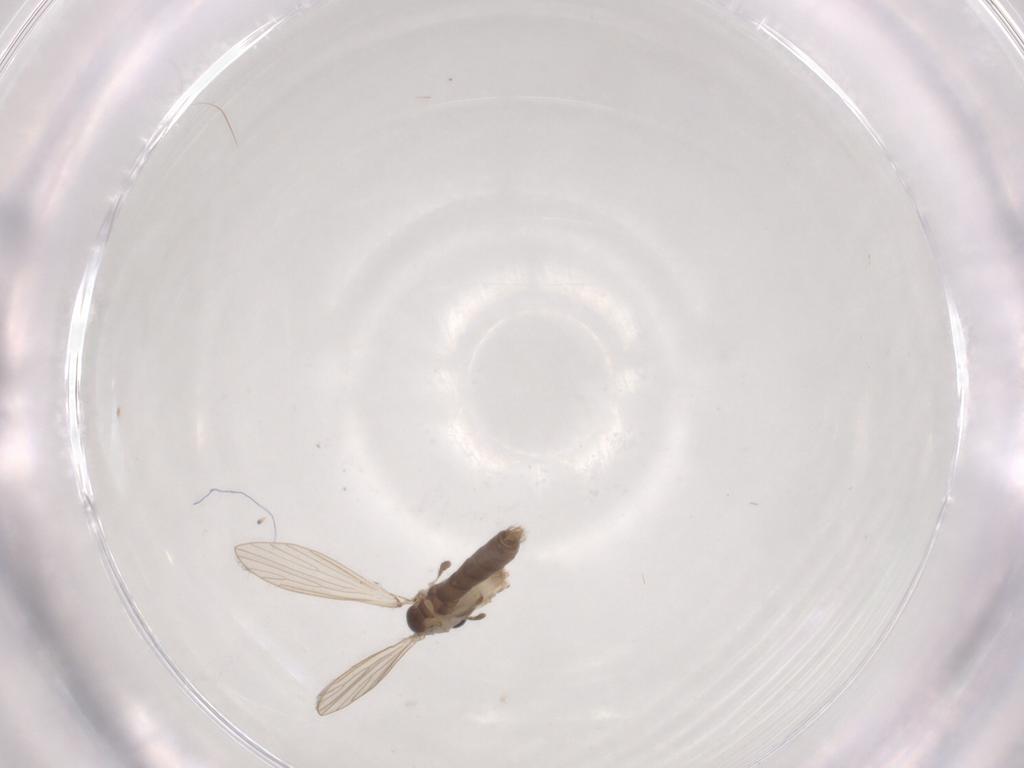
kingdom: Animalia
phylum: Arthropoda
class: Insecta
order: Diptera
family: Psychodidae
